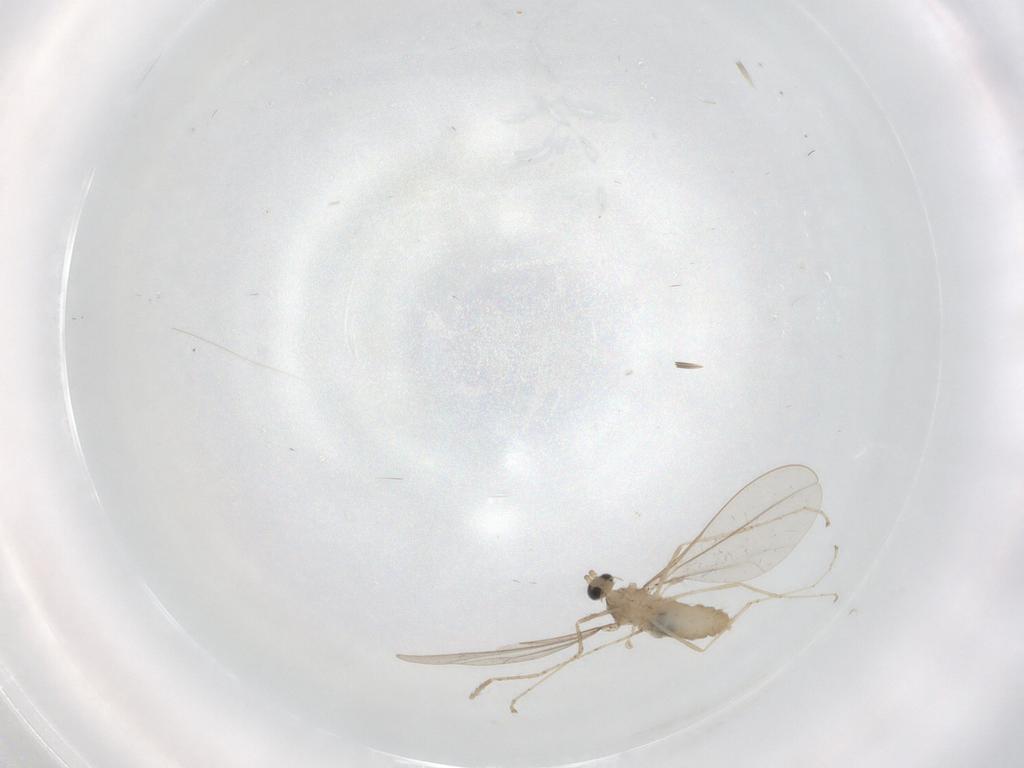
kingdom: Animalia
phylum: Arthropoda
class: Insecta
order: Diptera
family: Cecidomyiidae
